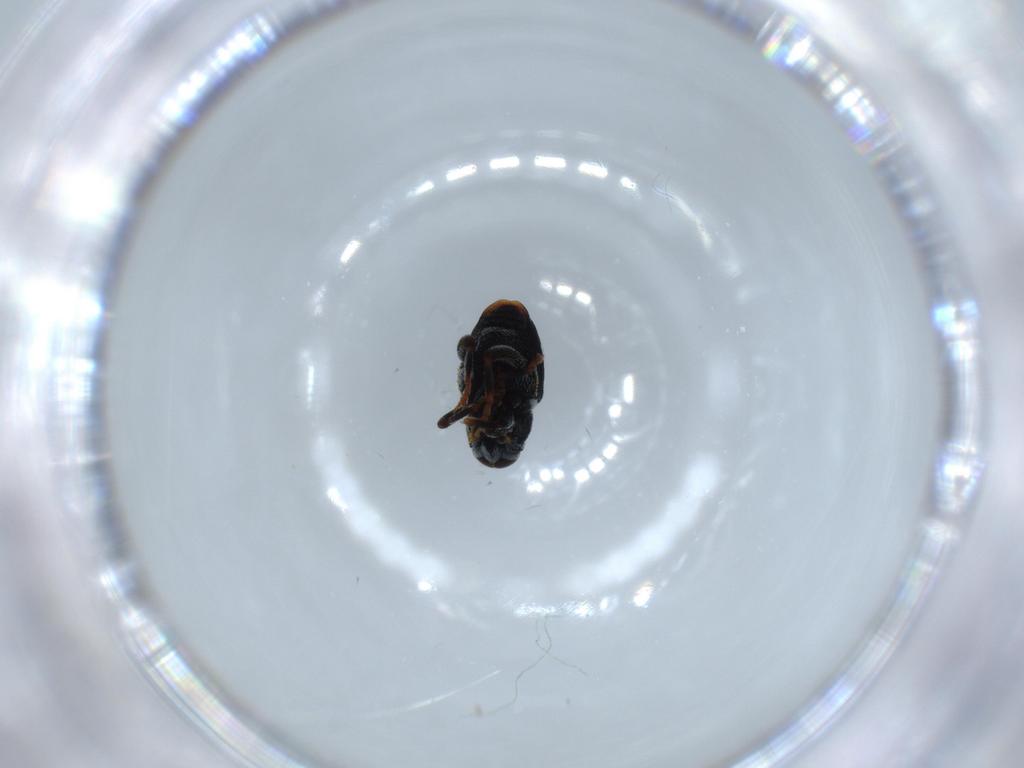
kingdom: Animalia
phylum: Arthropoda
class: Insecta
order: Coleoptera
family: Curculionidae
